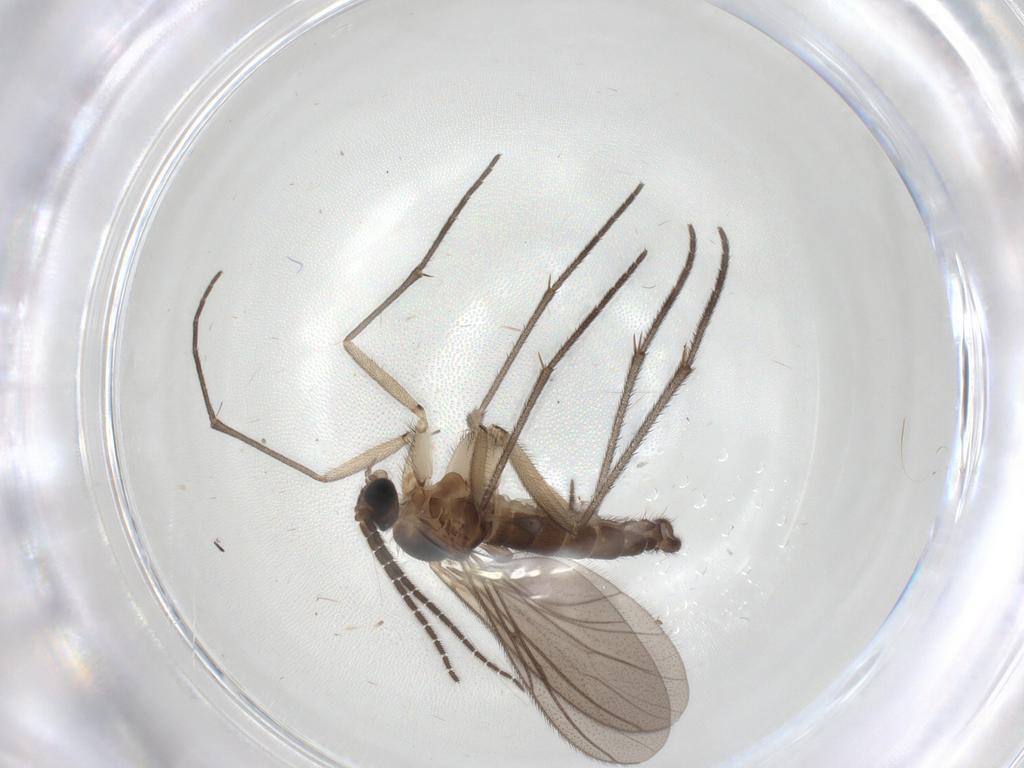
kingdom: Animalia
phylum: Arthropoda
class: Insecta
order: Diptera
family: Sciaridae
